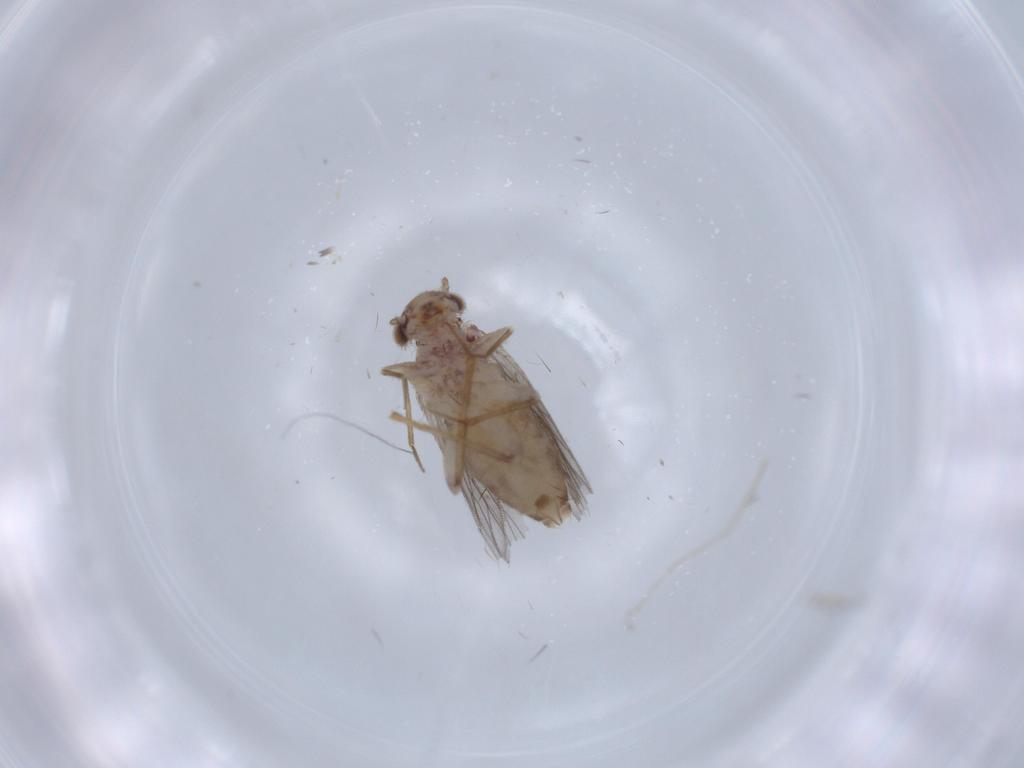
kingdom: Animalia
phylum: Arthropoda
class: Insecta
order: Psocodea
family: Lepidopsocidae
